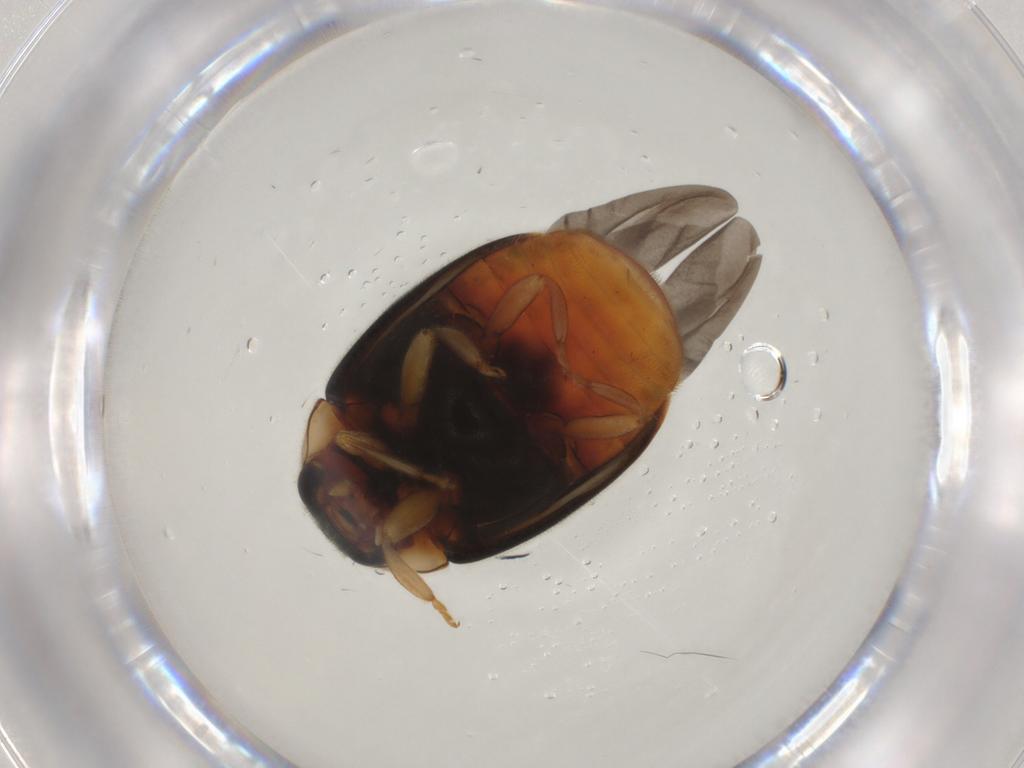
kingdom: Animalia
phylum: Arthropoda
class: Insecta
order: Coleoptera
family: Coccinellidae
